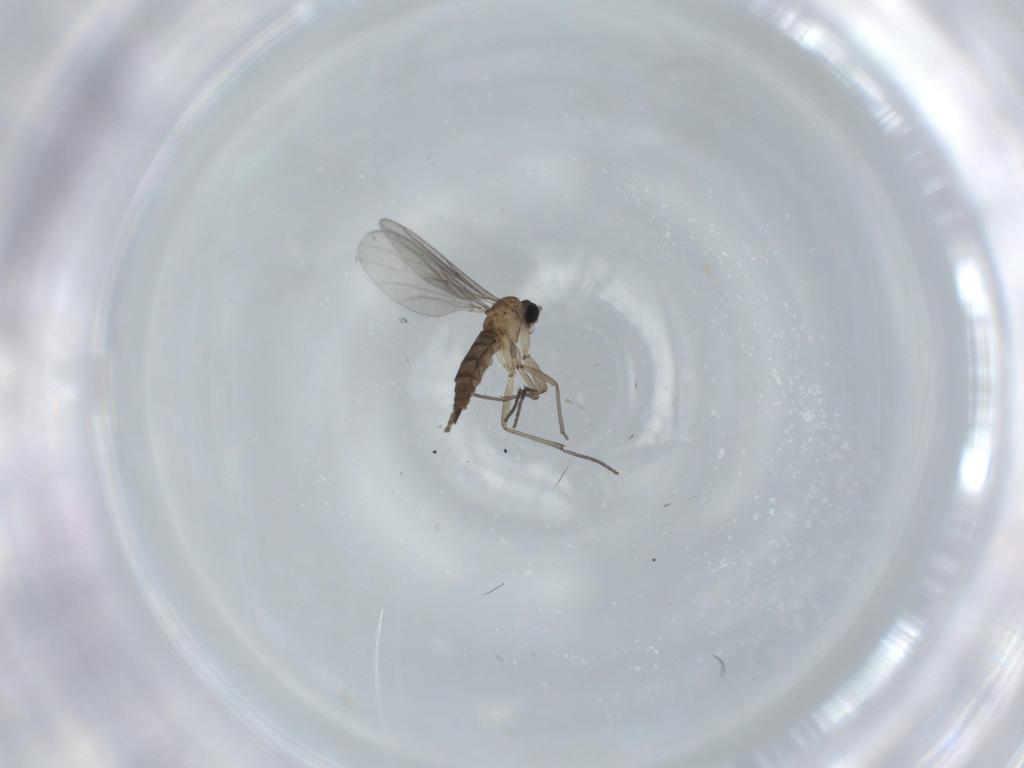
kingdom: Animalia
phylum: Arthropoda
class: Insecta
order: Diptera
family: Sciaridae
